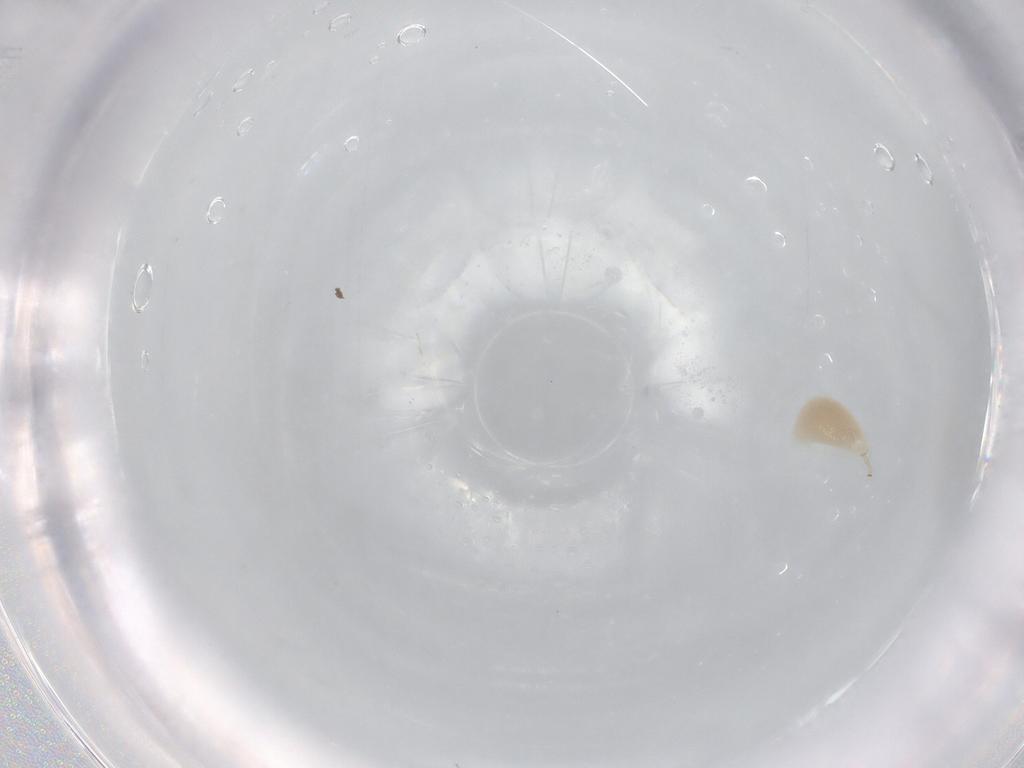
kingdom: Animalia
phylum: Arthropoda
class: Insecta
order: Hemiptera
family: Aphididae
